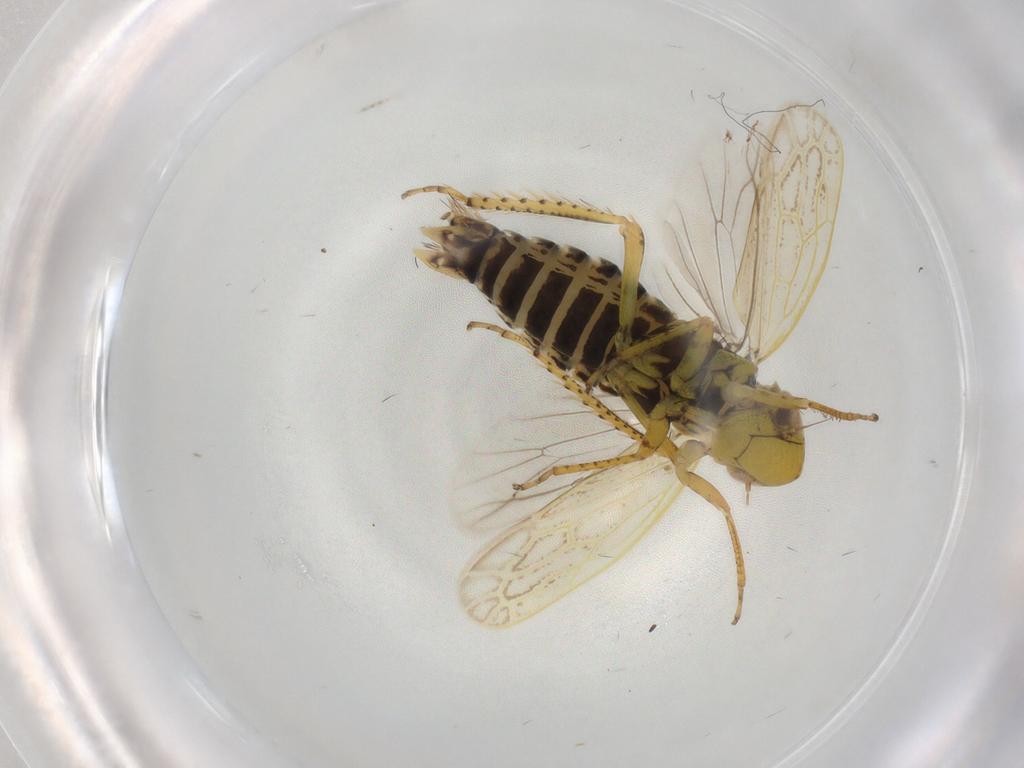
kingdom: Animalia
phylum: Arthropoda
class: Insecta
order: Hemiptera
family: Cicadellidae
